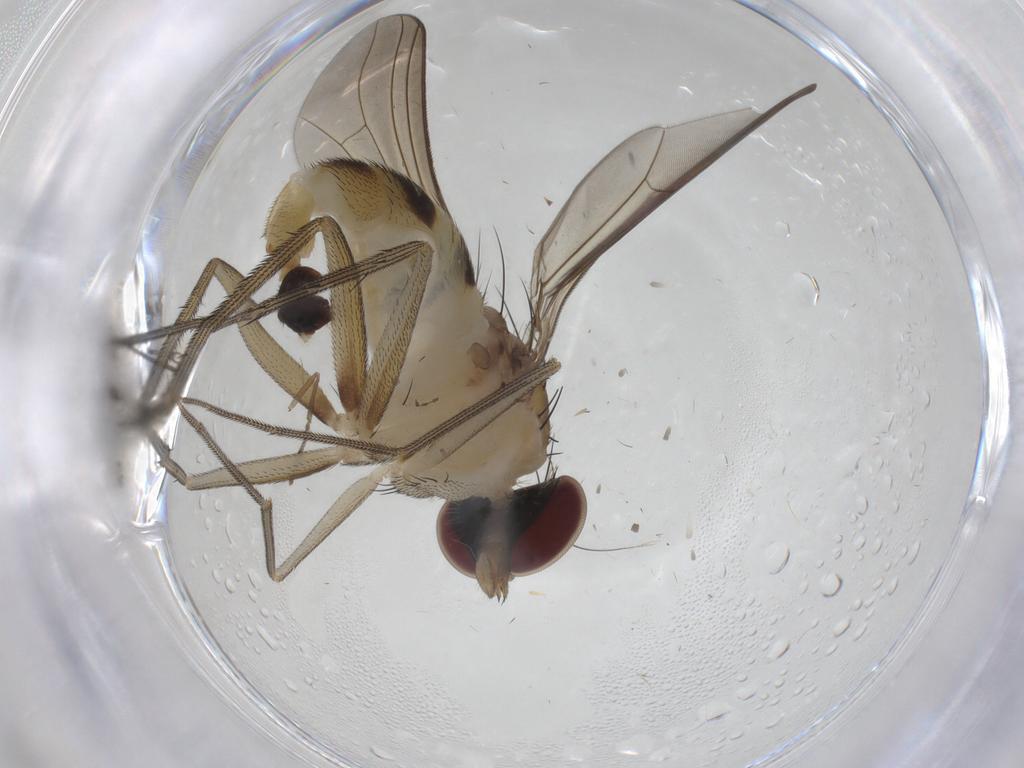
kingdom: Animalia
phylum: Arthropoda
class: Insecta
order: Diptera
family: Dolichopodidae
